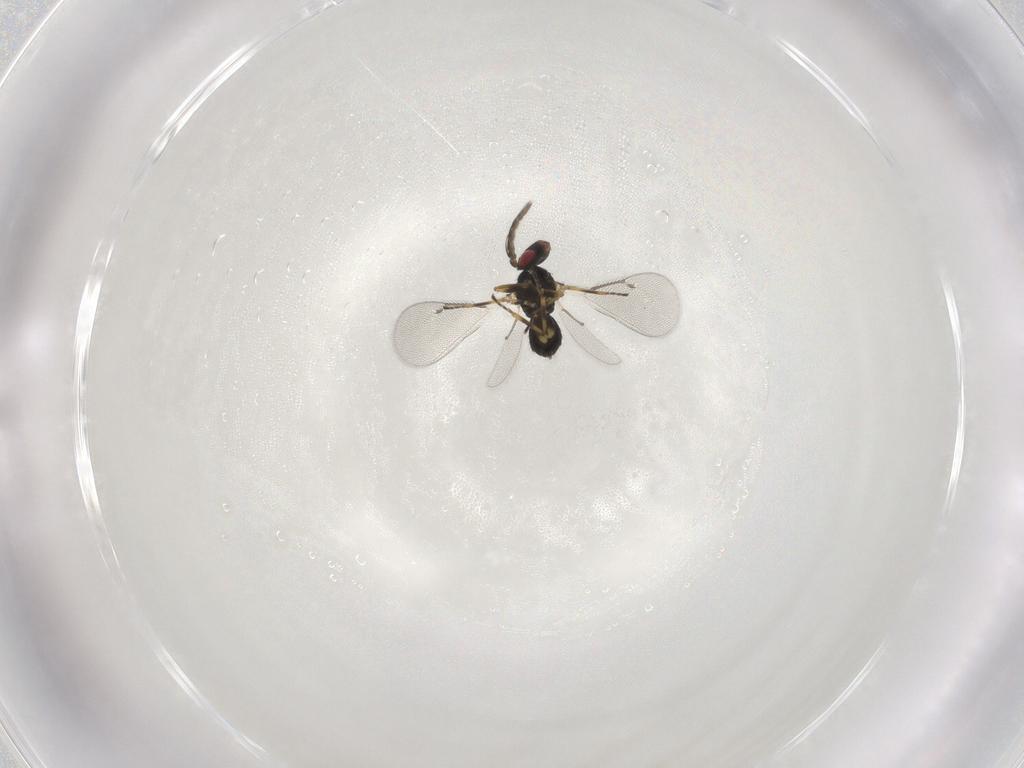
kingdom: Animalia
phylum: Arthropoda
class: Insecta
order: Hymenoptera
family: Eulophidae
